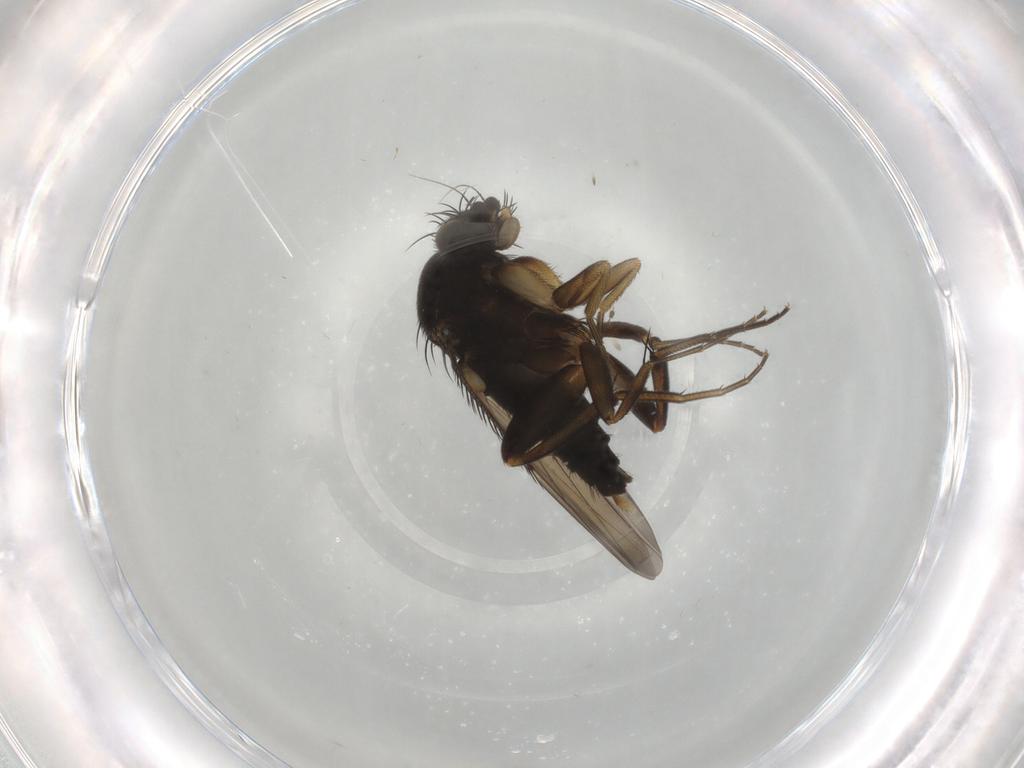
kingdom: Animalia
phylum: Arthropoda
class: Insecta
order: Diptera
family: Phoridae
